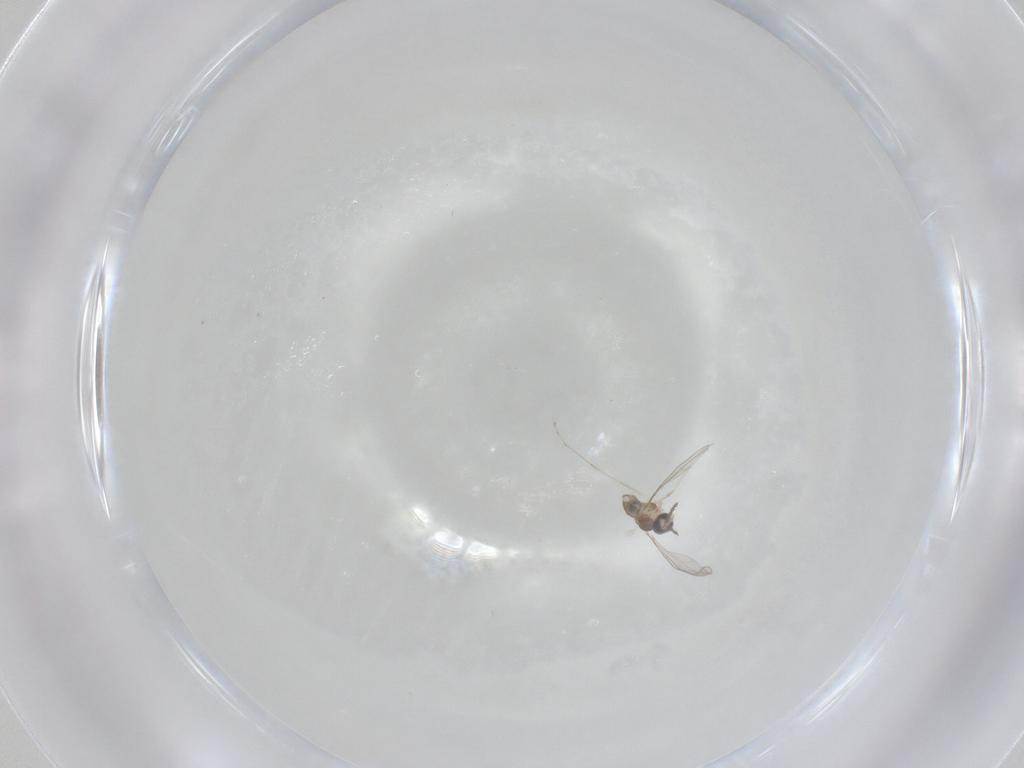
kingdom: Animalia
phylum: Arthropoda
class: Insecta
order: Diptera
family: Cecidomyiidae
